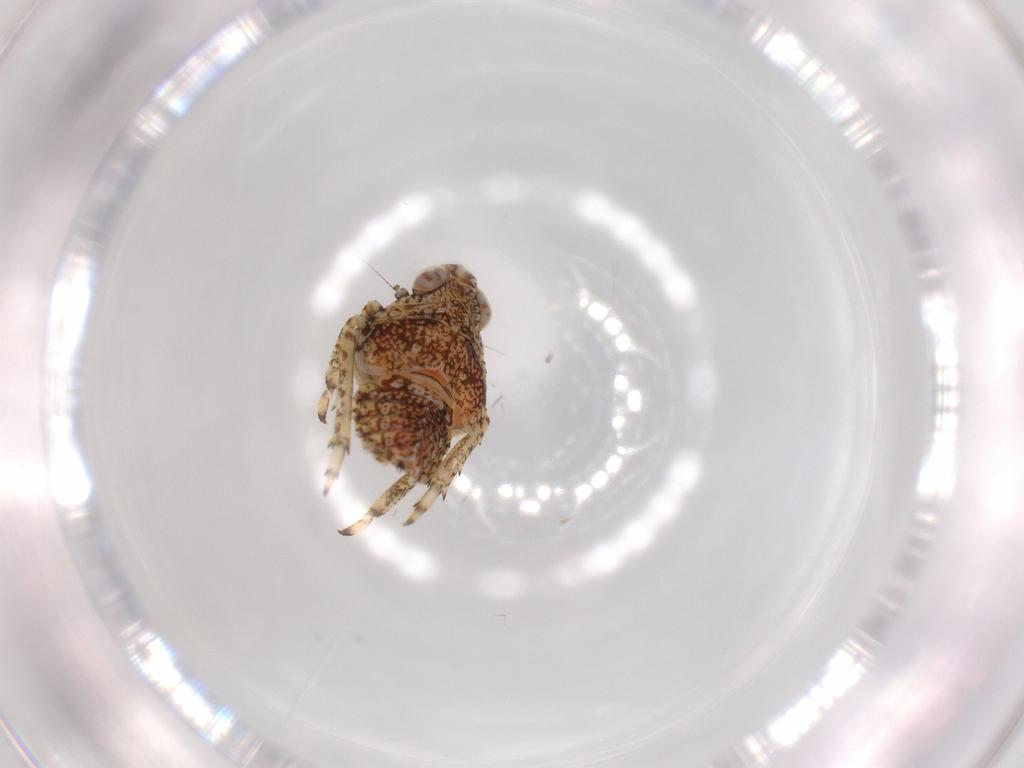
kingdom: Animalia
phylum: Arthropoda
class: Insecta
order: Hemiptera
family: Issidae
